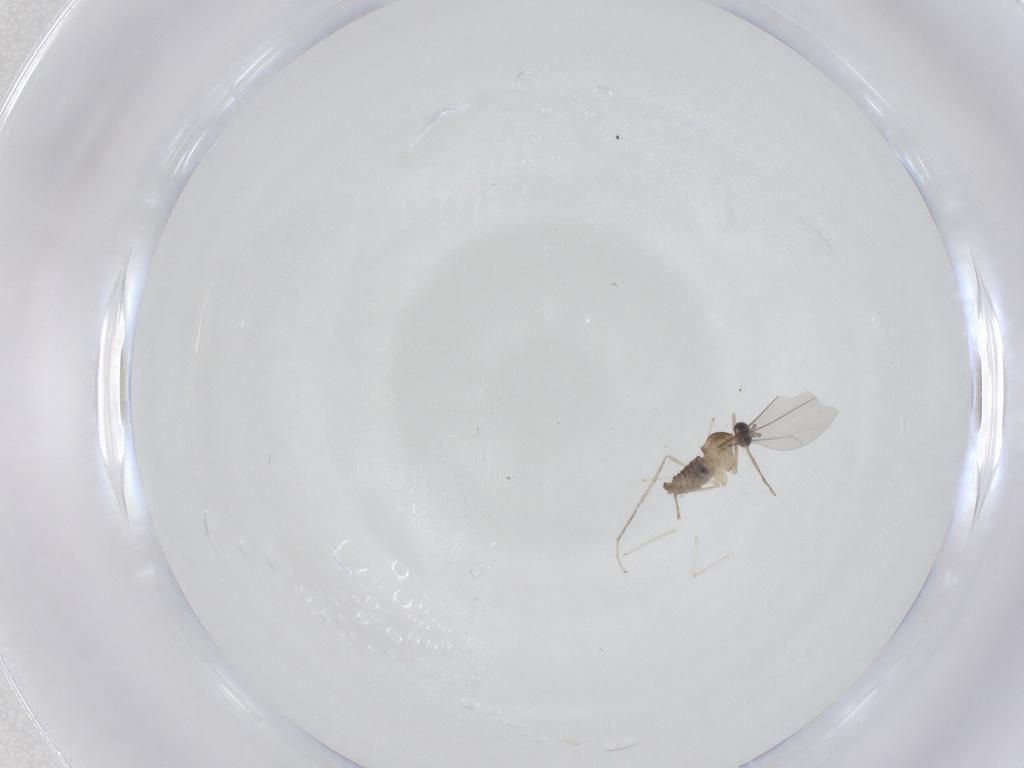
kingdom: Animalia
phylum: Arthropoda
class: Insecta
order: Diptera
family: Cecidomyiidae
